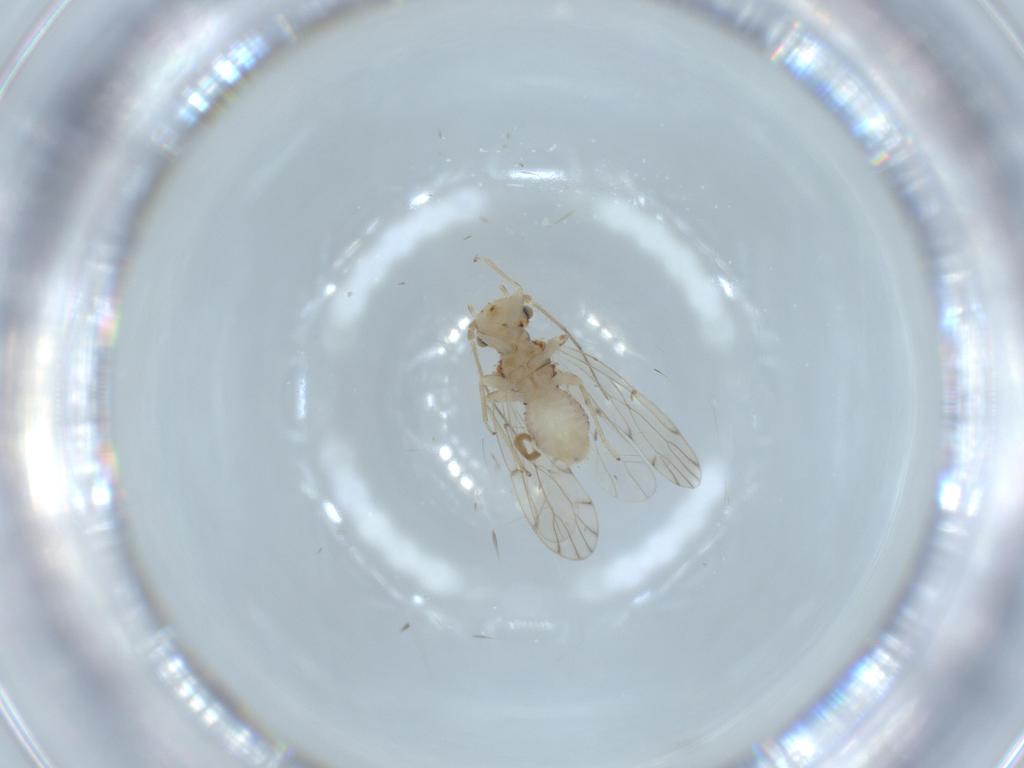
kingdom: Animalia
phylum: Arthropoda
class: Insecta
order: Psocodea
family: Ectopsocidae
